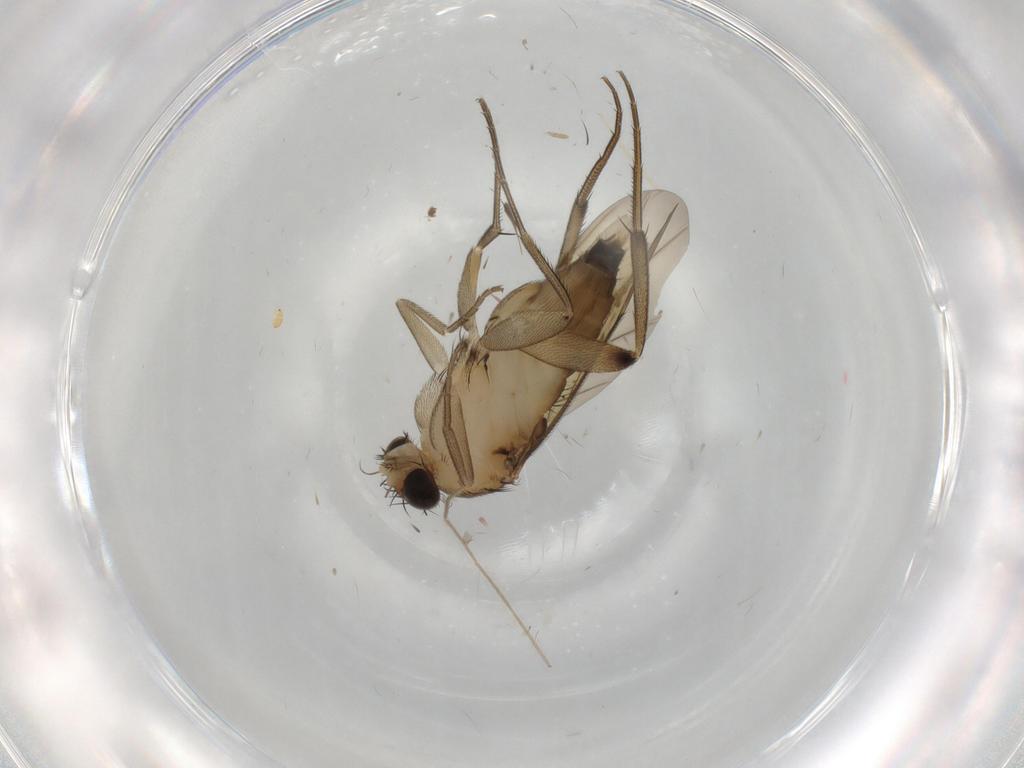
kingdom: Animalia
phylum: Arthropoda
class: Insecta
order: Diptera
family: Phoridae
